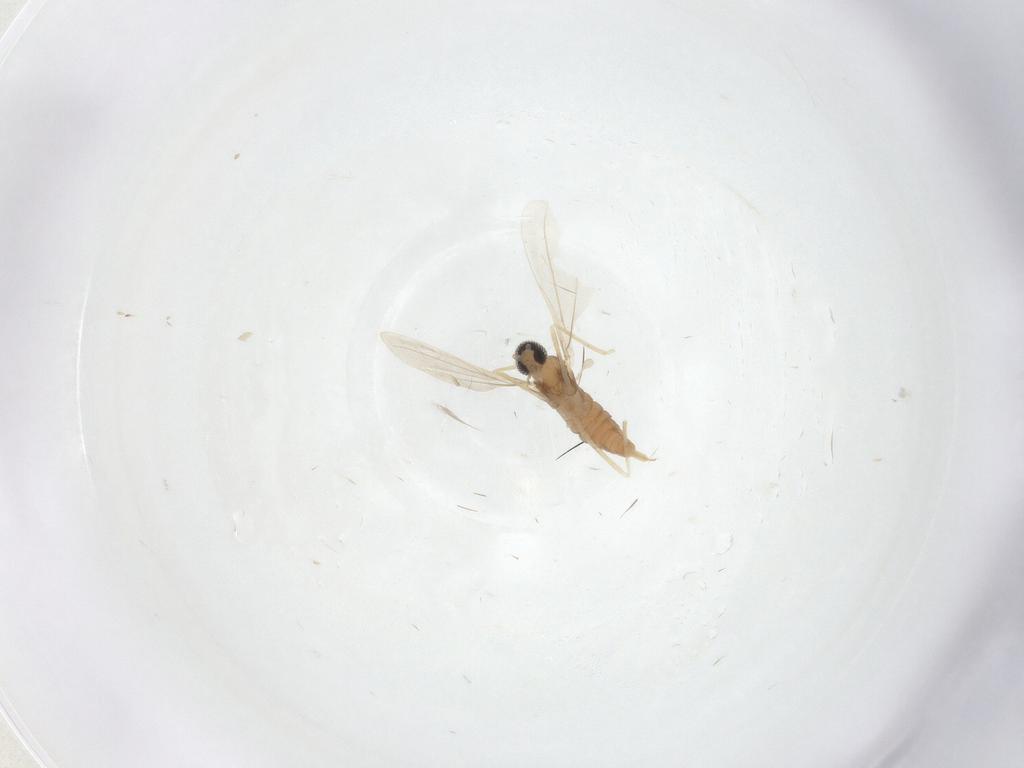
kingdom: Animalia
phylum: Arthropoda
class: Insecta
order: Diptera
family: Cecidomyiidae
